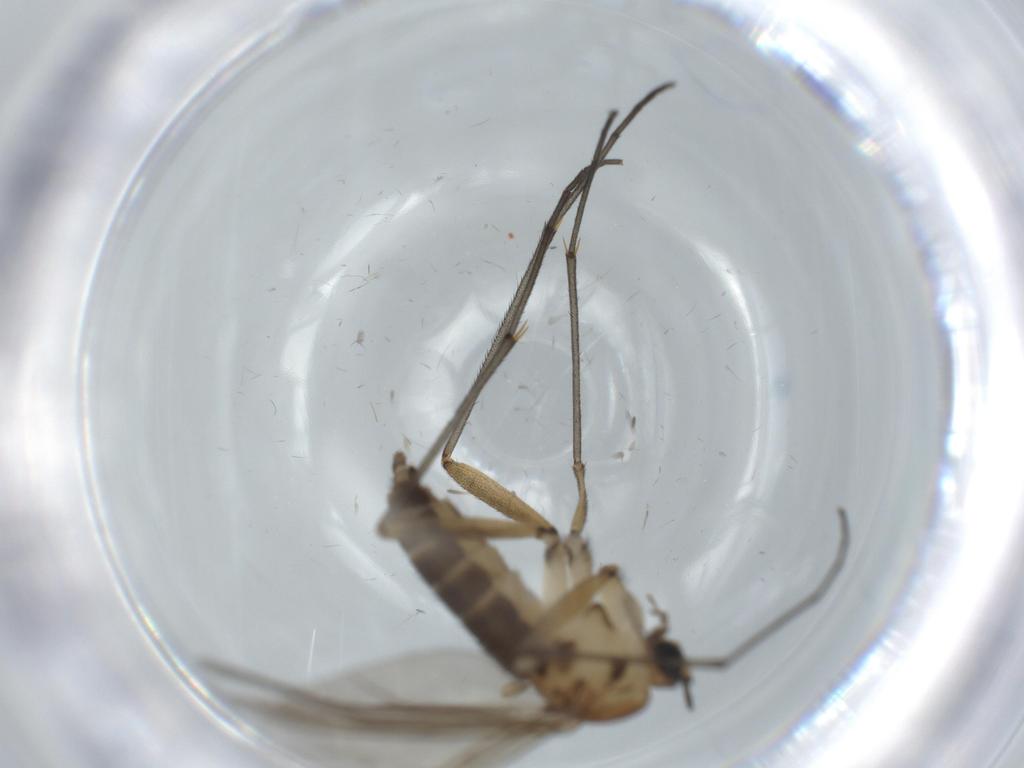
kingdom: Animalia
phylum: Arthropoda
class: Insecta
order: Diptera
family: Sciaridae
